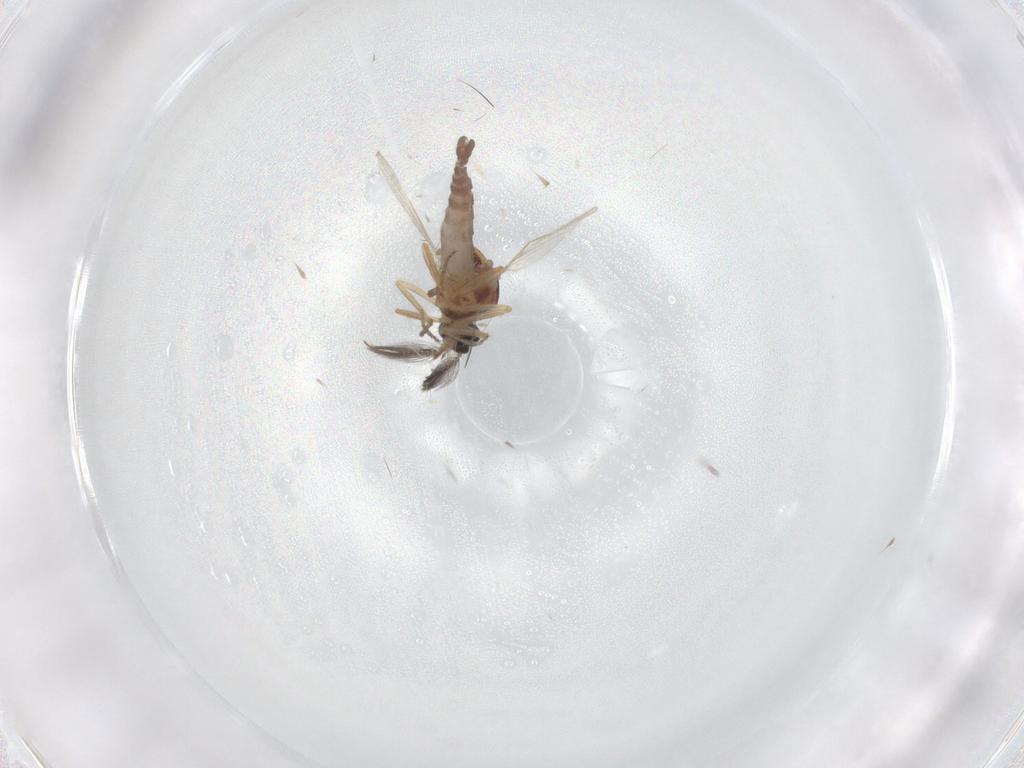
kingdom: Animalia
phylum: Arthropoda
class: Insecta
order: Diptera
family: Ceratopogonidae
